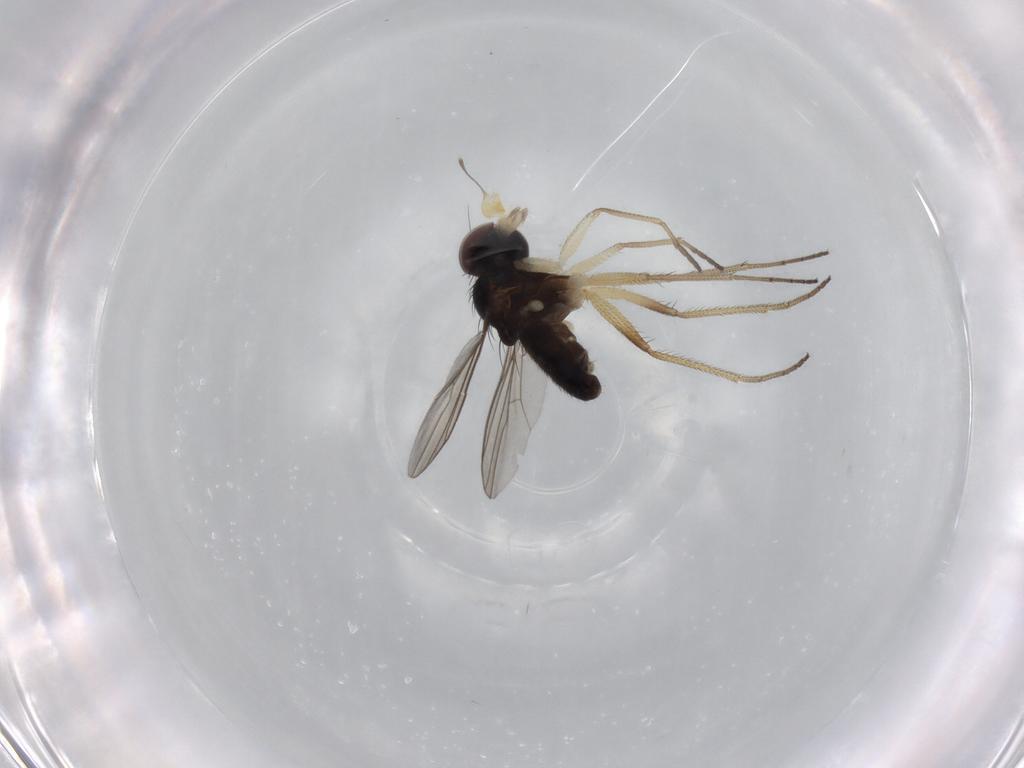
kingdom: Animalia
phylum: Arthropoda
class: Insecta
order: Diptera
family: Dolichopodidae
